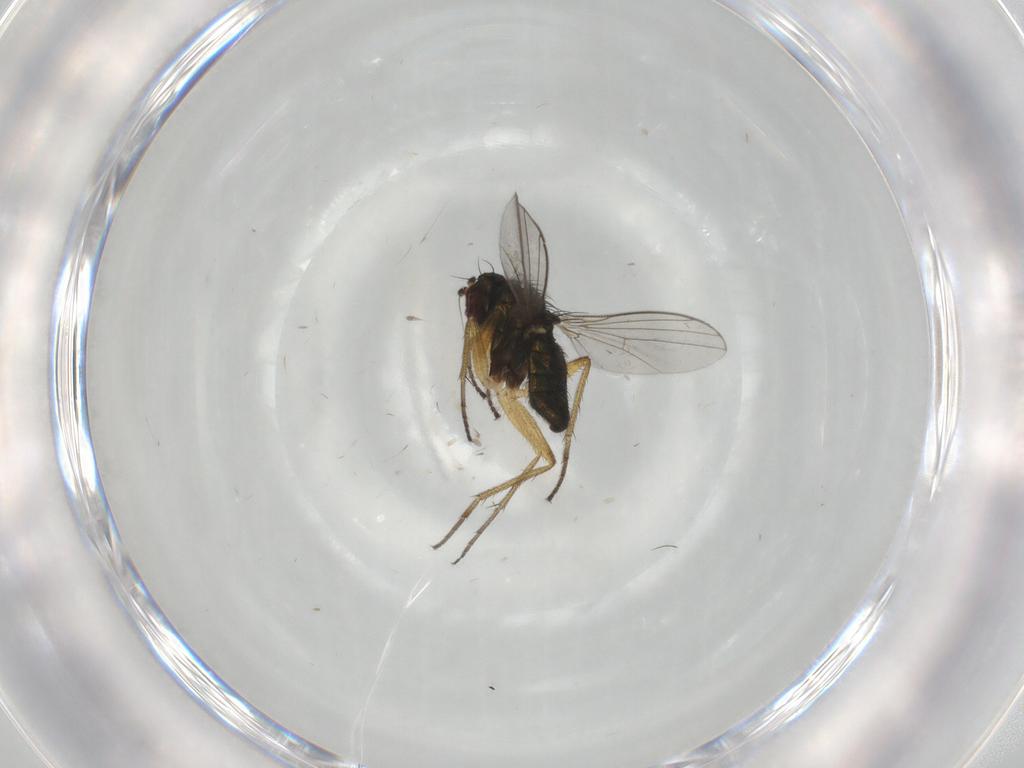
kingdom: Animalia
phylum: Arthropoda
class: Insecta
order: Diptera
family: Dolichopodidae
